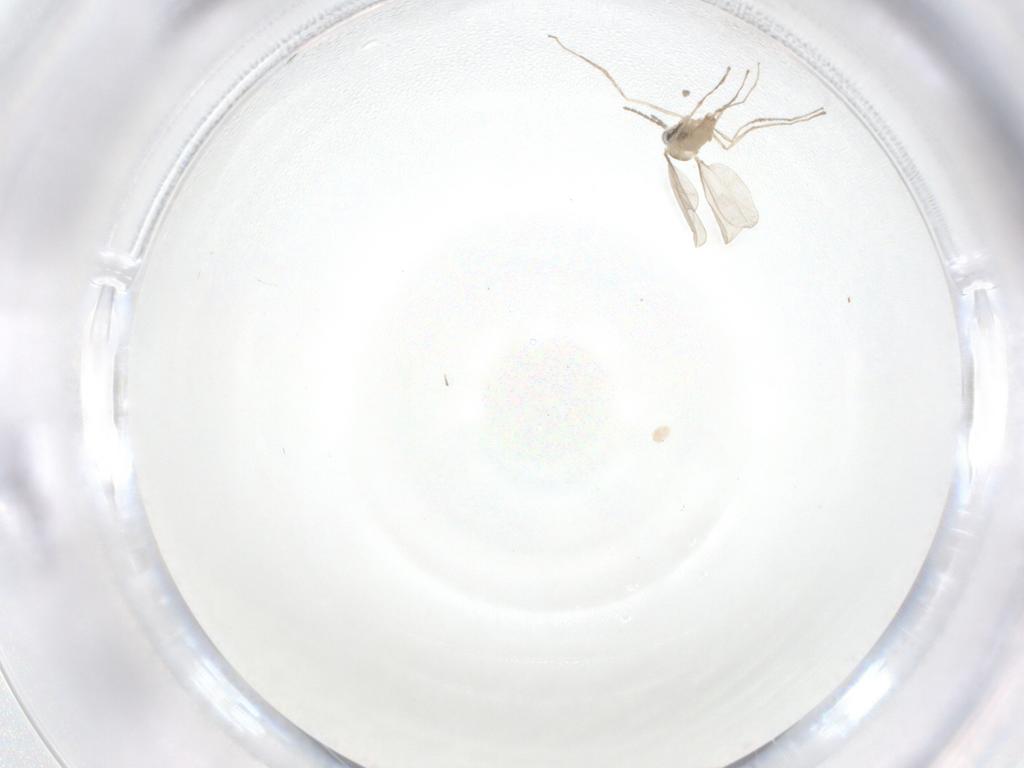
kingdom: Animalia
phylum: Arthropoda
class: Insecta
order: Diptera
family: Cecidomyiidae
